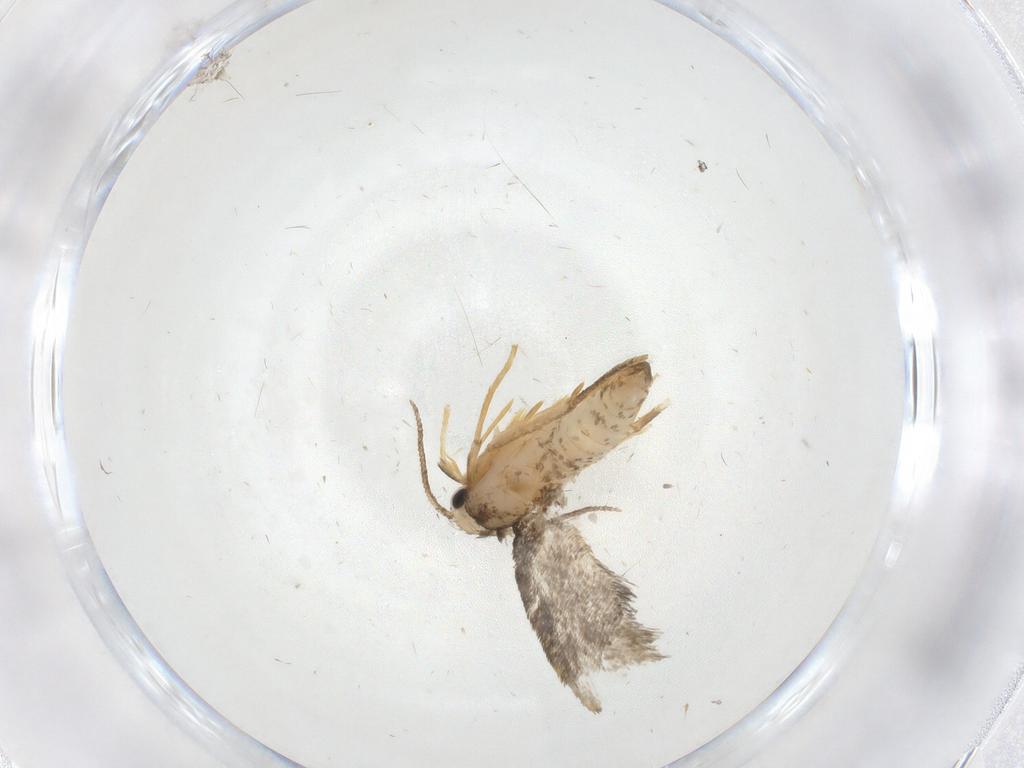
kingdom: Animalia
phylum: Arthropoda
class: Insecta
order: Lepidoptera
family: Psychidae
